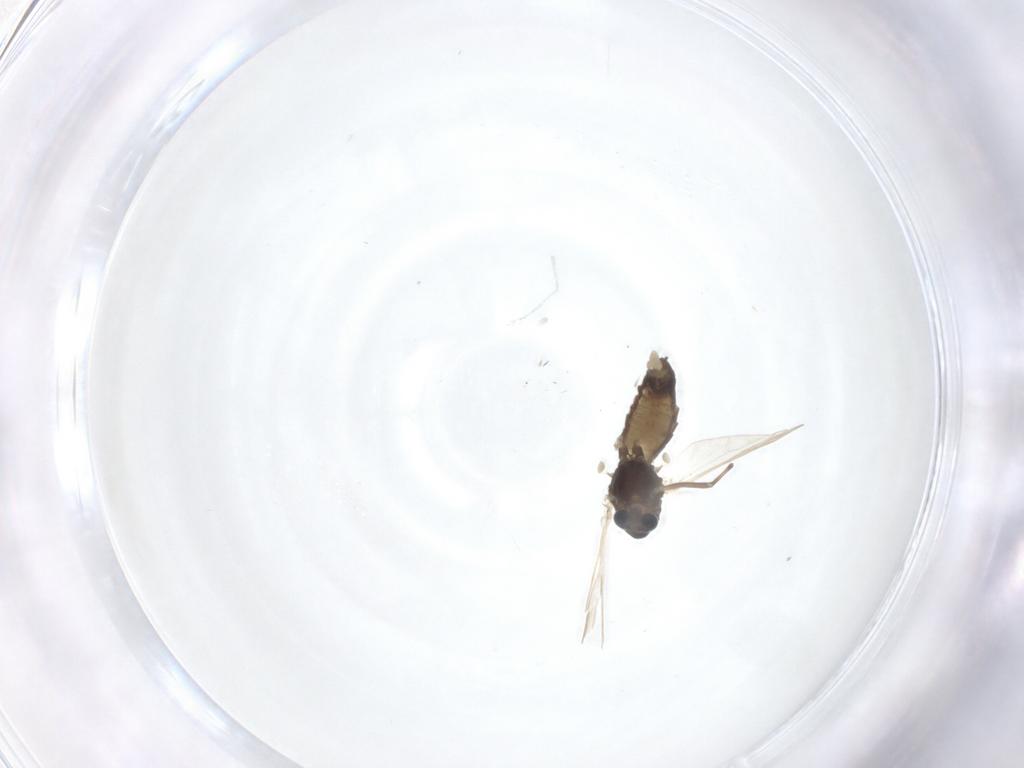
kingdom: Animalia
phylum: Arthropoda
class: Insecta
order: Diptera
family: Chironomidae
